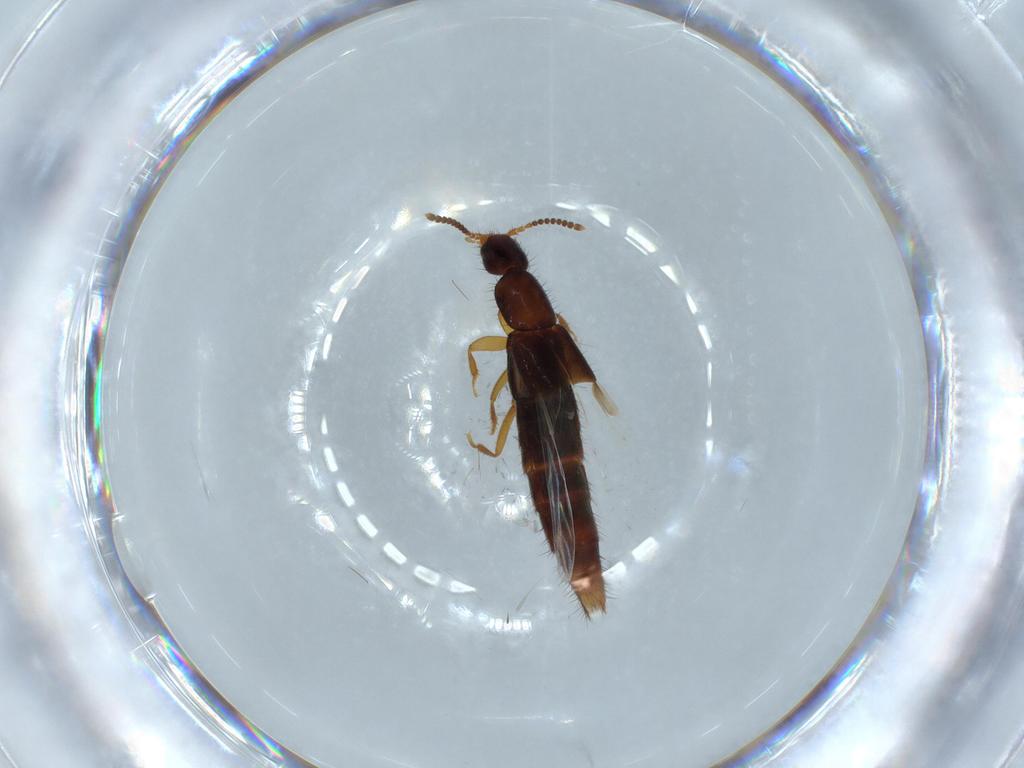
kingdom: Animalia
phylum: Arthropoda
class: Insecta
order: Coleoptera
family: Staphylinidae
